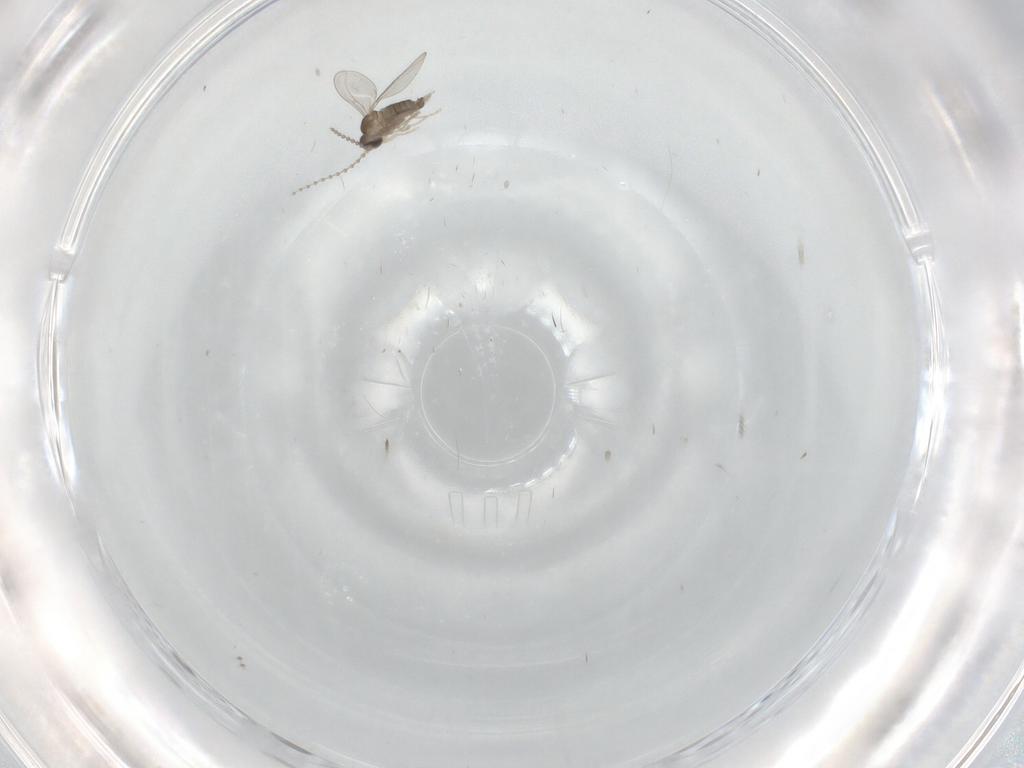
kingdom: Animalia
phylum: Arthropoda
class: Insecta
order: Diptera
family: Cecidomyiidae
